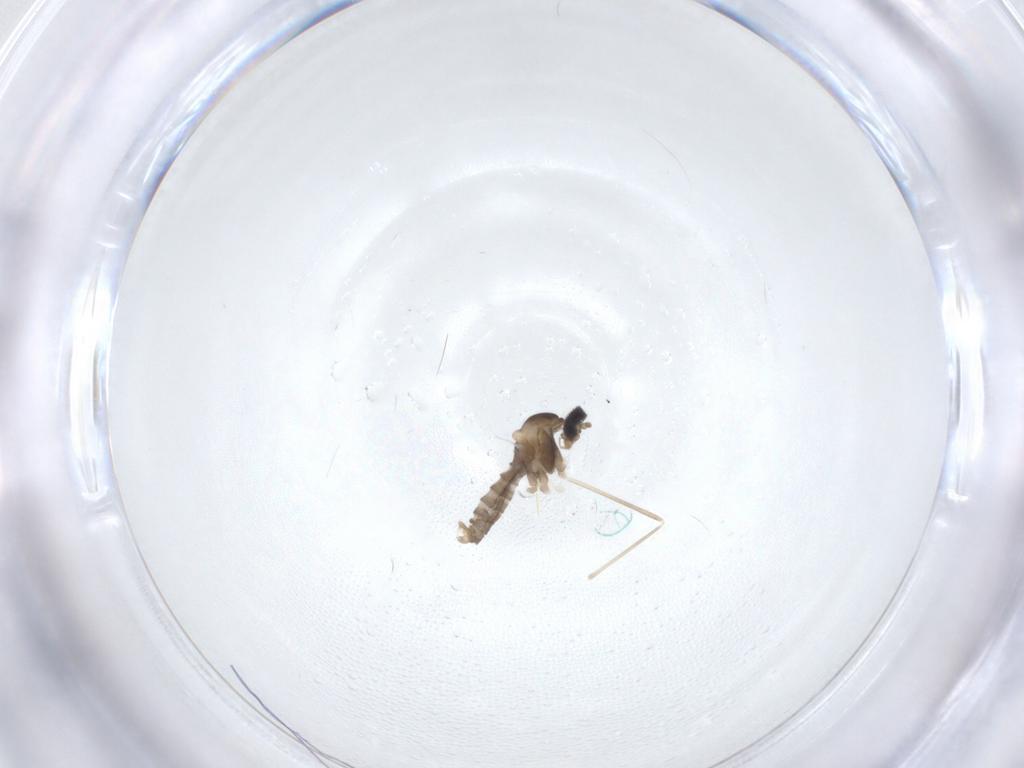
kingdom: Animalia
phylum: Arthropoda
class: Insecta
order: Diptera
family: Cecidomyiidae
